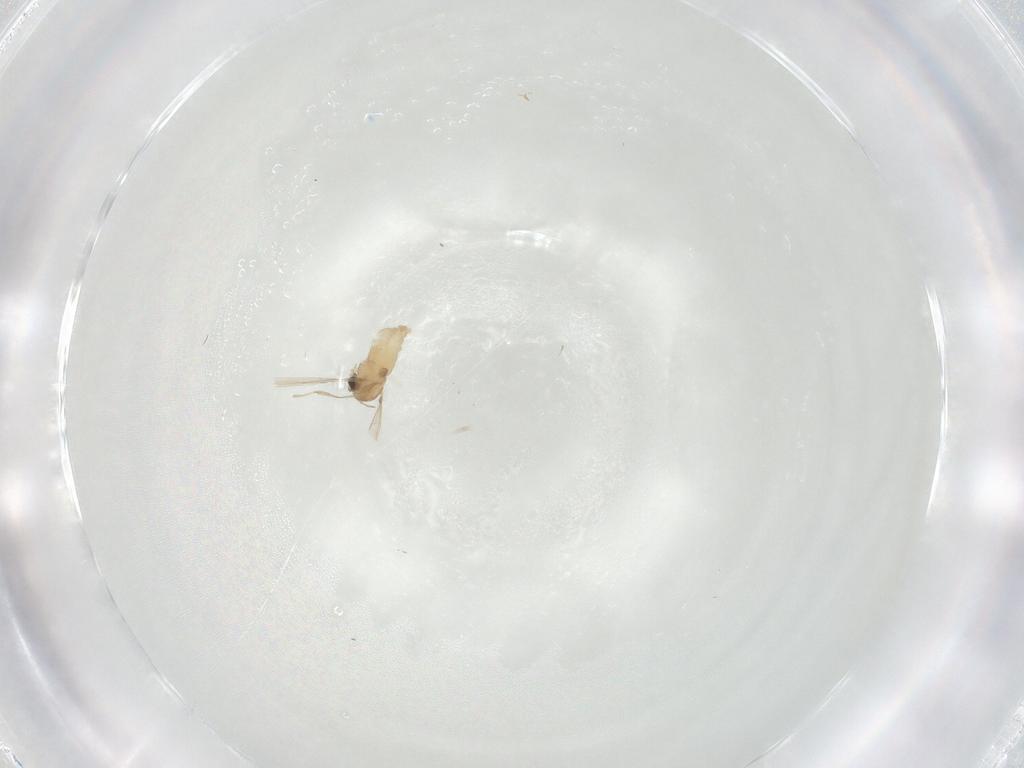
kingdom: Animalia
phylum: Arthropoda
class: Insecta
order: Diptera
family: Chironomidae
